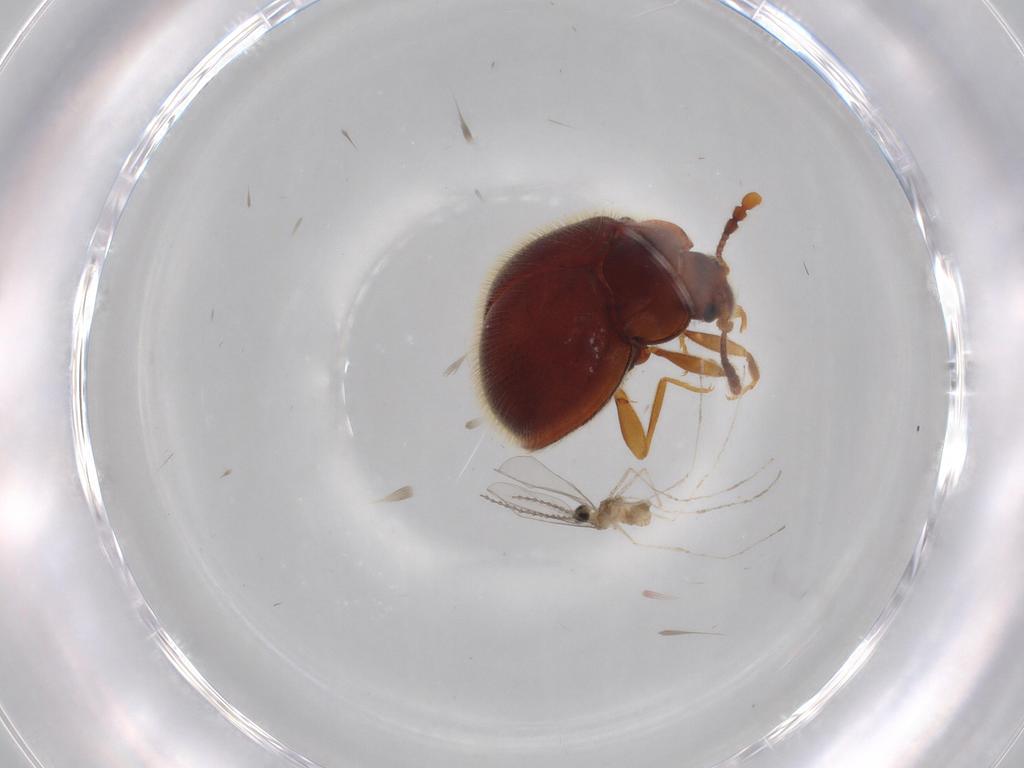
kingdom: Animalia
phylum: Arthropoda
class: Insecta
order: Coleoptera
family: Anamorphidae
